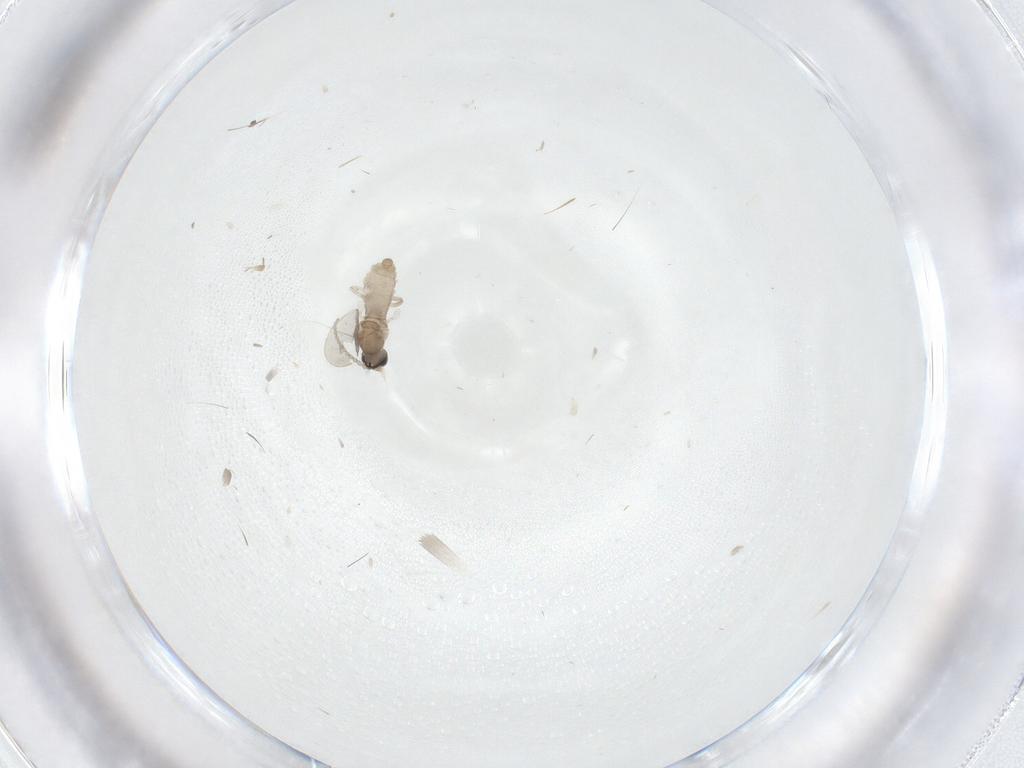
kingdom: Animalia
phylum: Arthropoda
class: Insecta
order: Diptera
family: Cecidomyiidae
